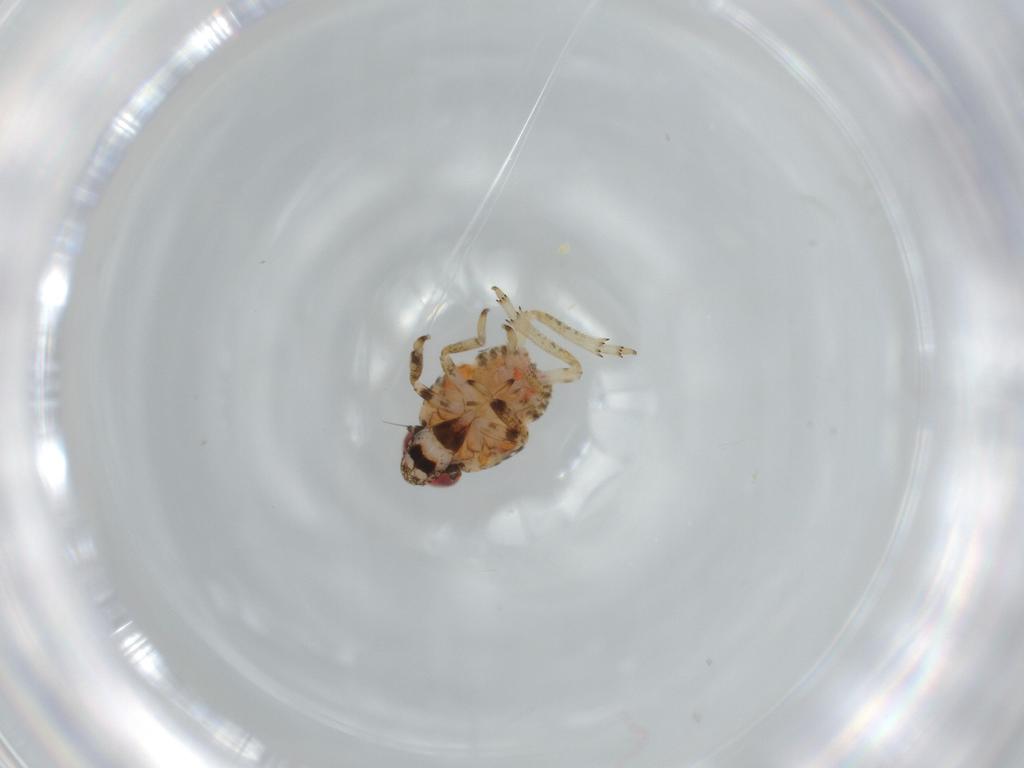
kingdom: Animalia
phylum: Arthropoda
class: Insecta
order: Hemiptera
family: Issidae
